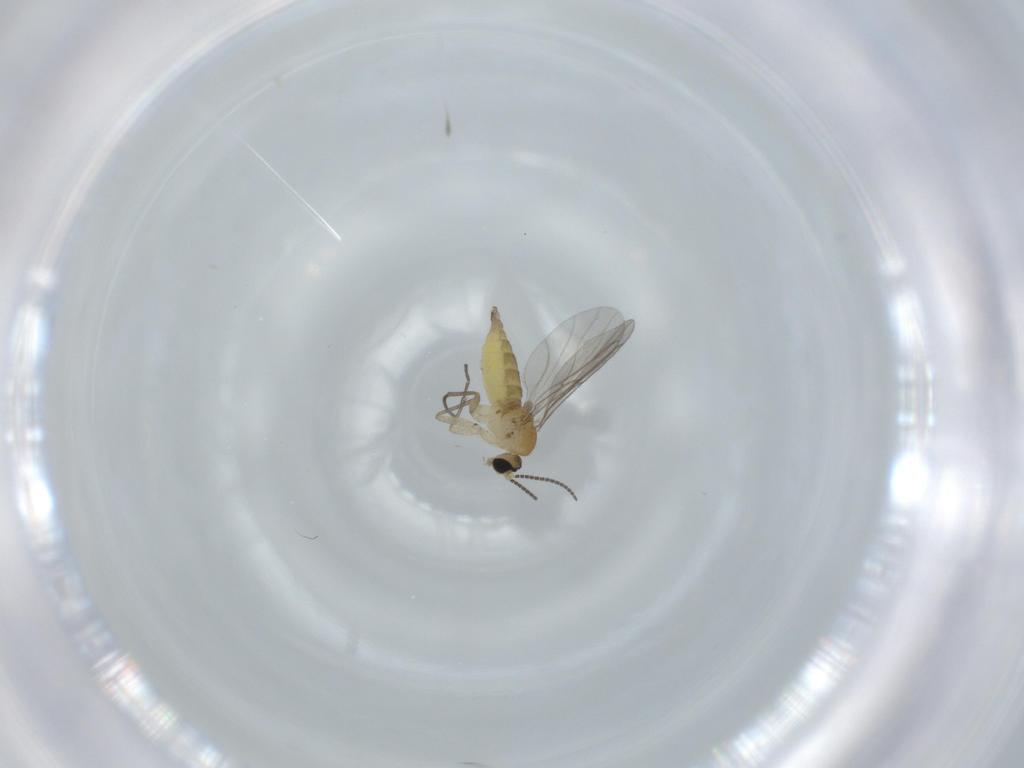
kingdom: Animalia
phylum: Arthropoda
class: Insecta
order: Diptera
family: Sciaridae
